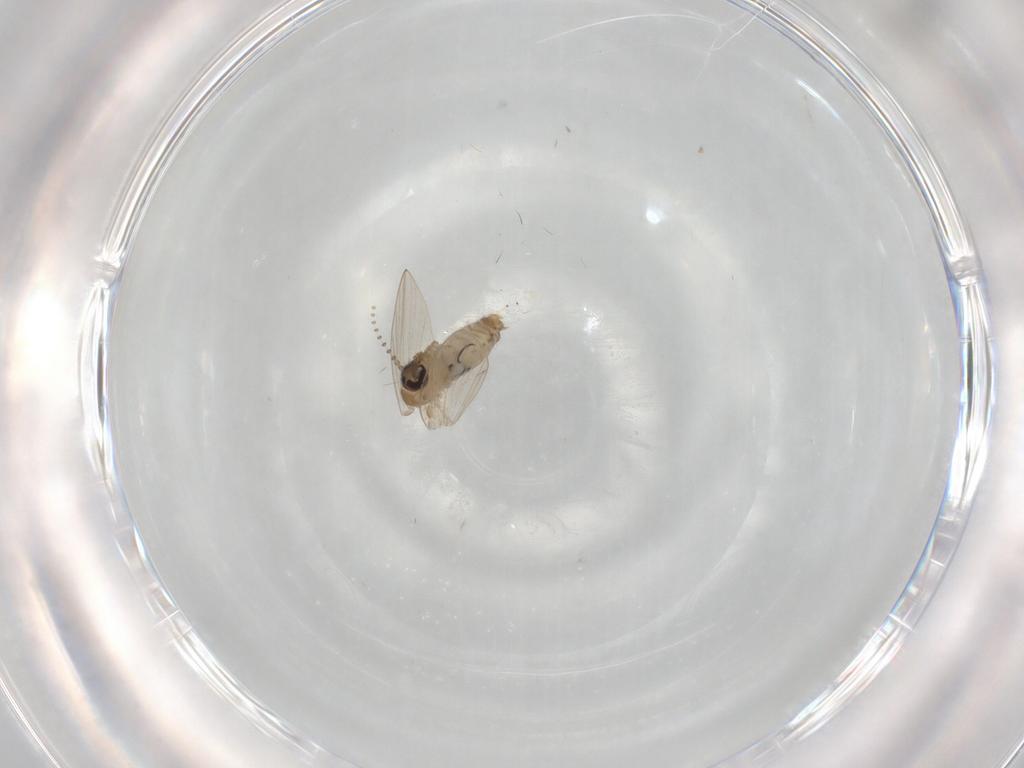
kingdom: Animalia
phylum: Arthropoda
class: Insecta
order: Diptera
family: Psychodidae
